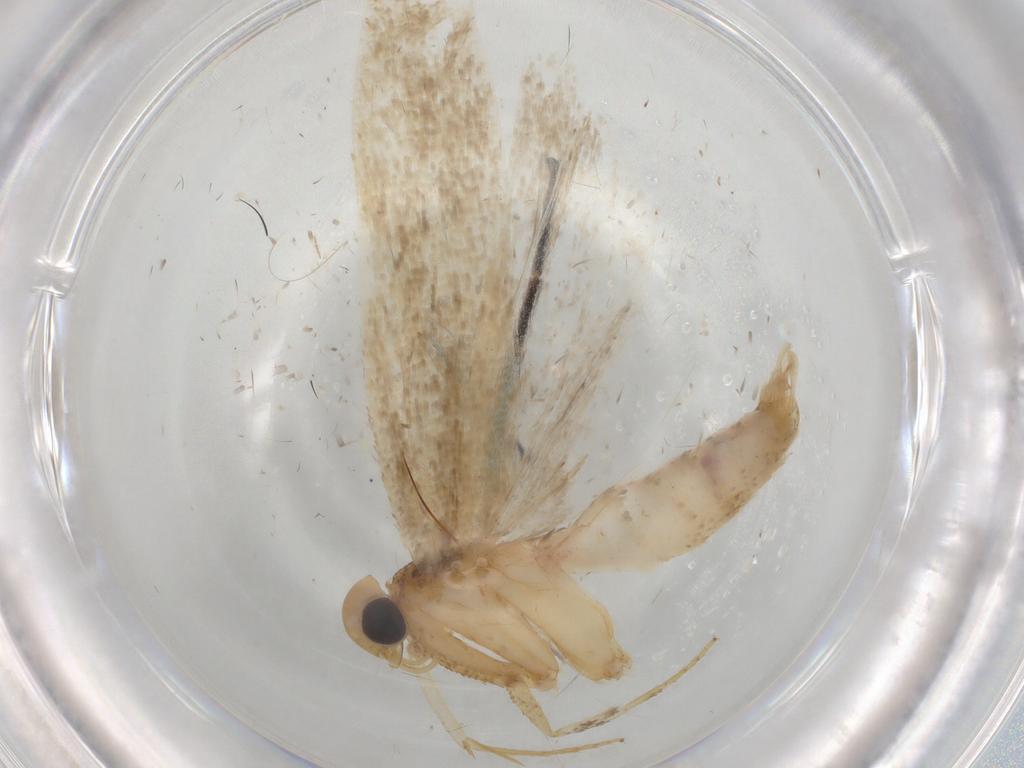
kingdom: Animalia
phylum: Arthropoda
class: Insecta
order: Lepidoptera
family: Gelechiidae
